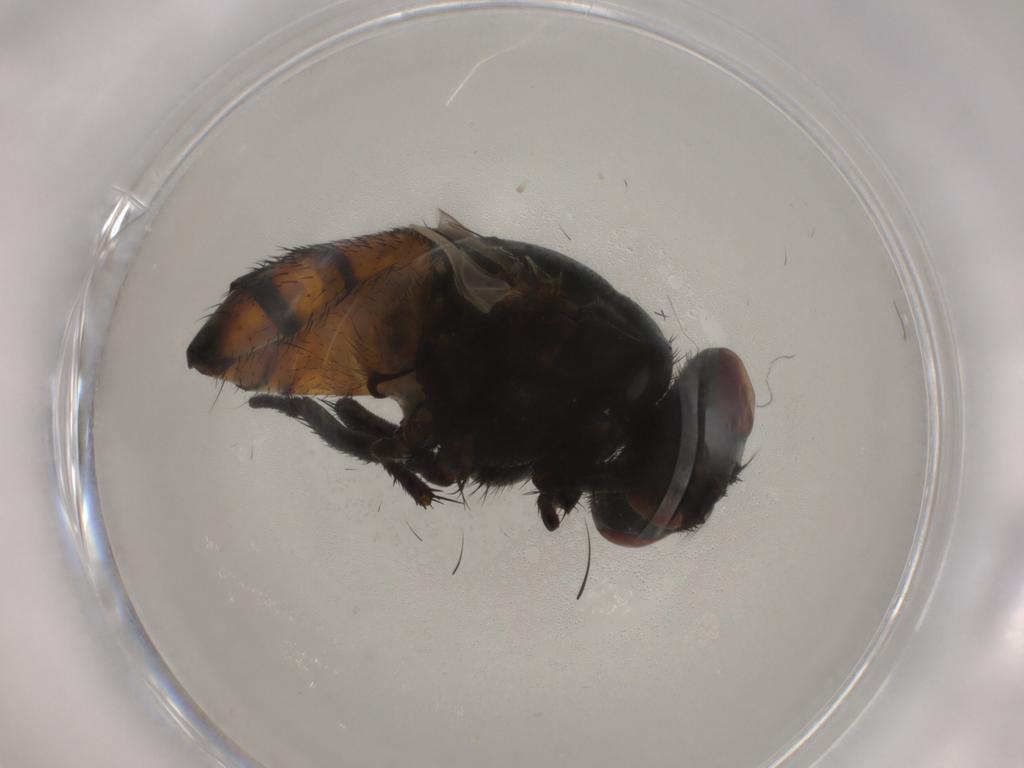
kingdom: Animalia
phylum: Arthropoda
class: Insecta
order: Diptera
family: Muscidae
